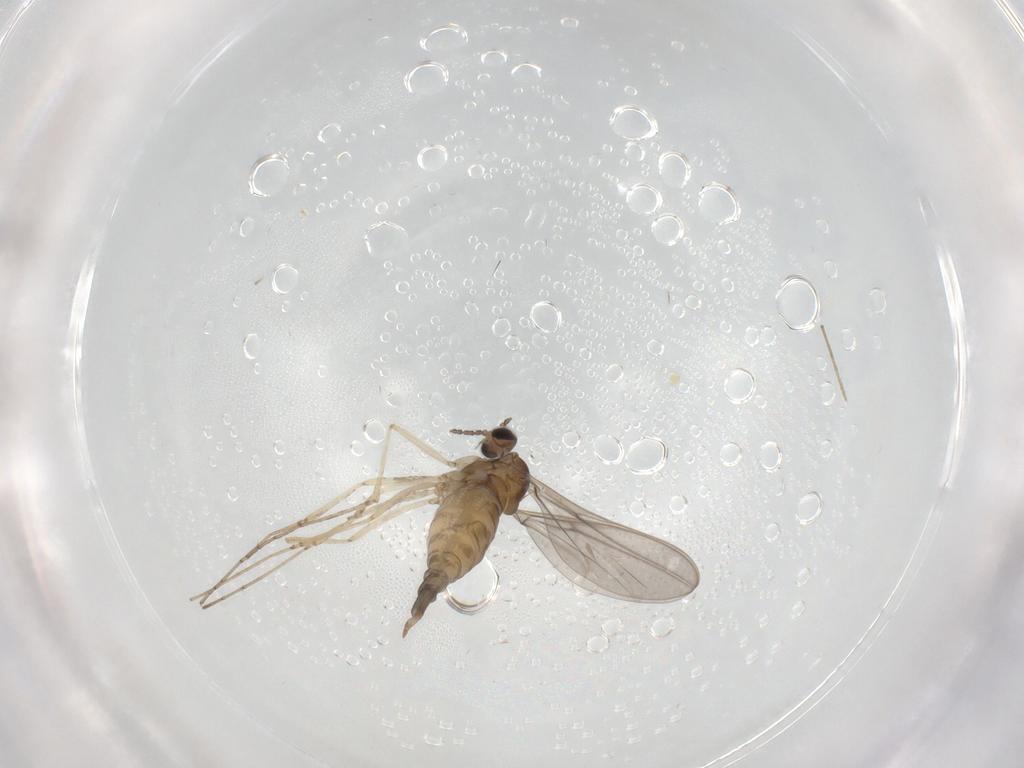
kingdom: Animalia
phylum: Arthropoda
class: Insecta
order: Diptera
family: Cecidomyiidae
